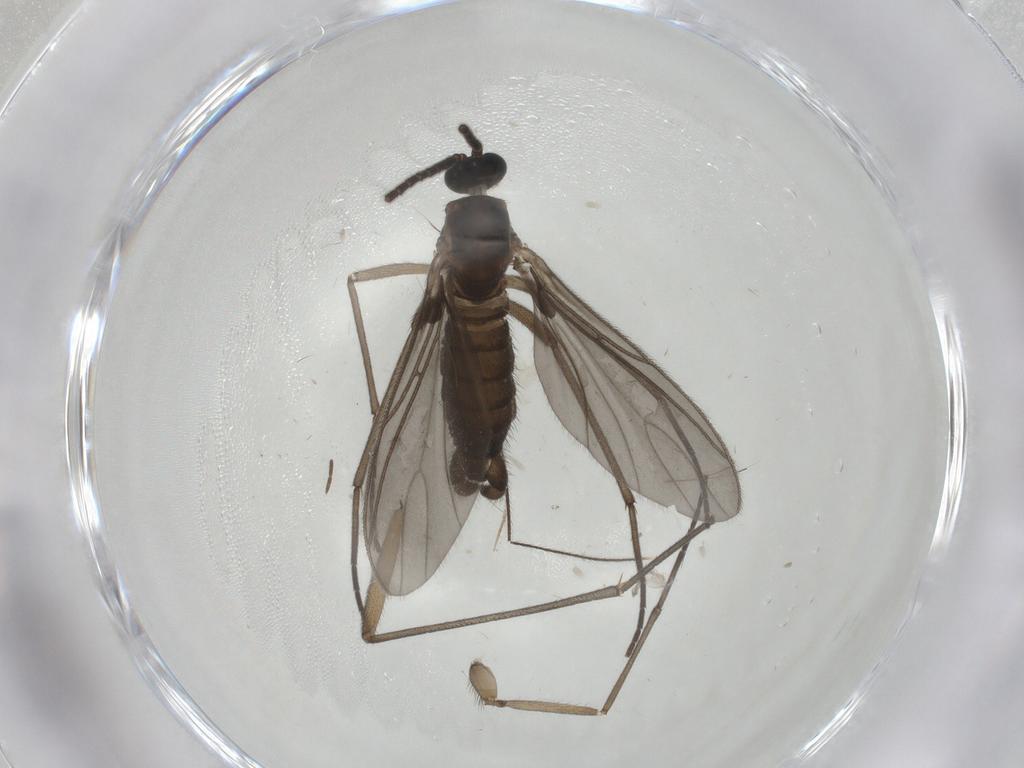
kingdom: Animalia
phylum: Arthropoda
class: Insecta
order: Diptera
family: Sciaridae
